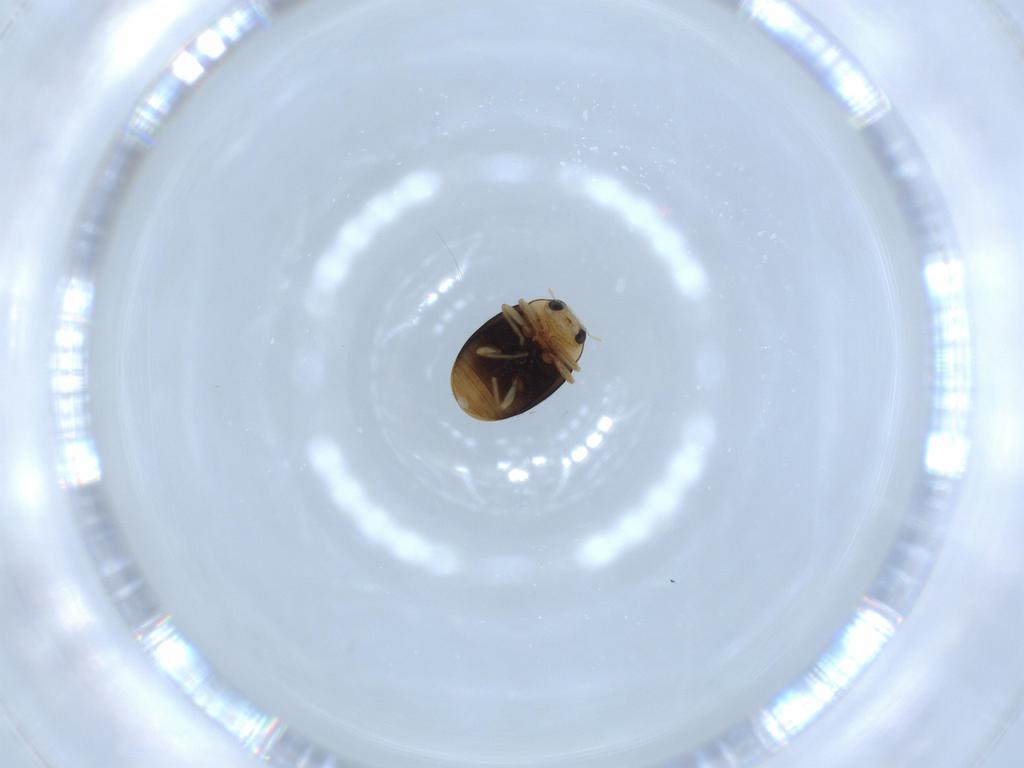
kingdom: Animalia
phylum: Arthropoda
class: Insecta
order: Coleoptera
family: Coccinellidae
